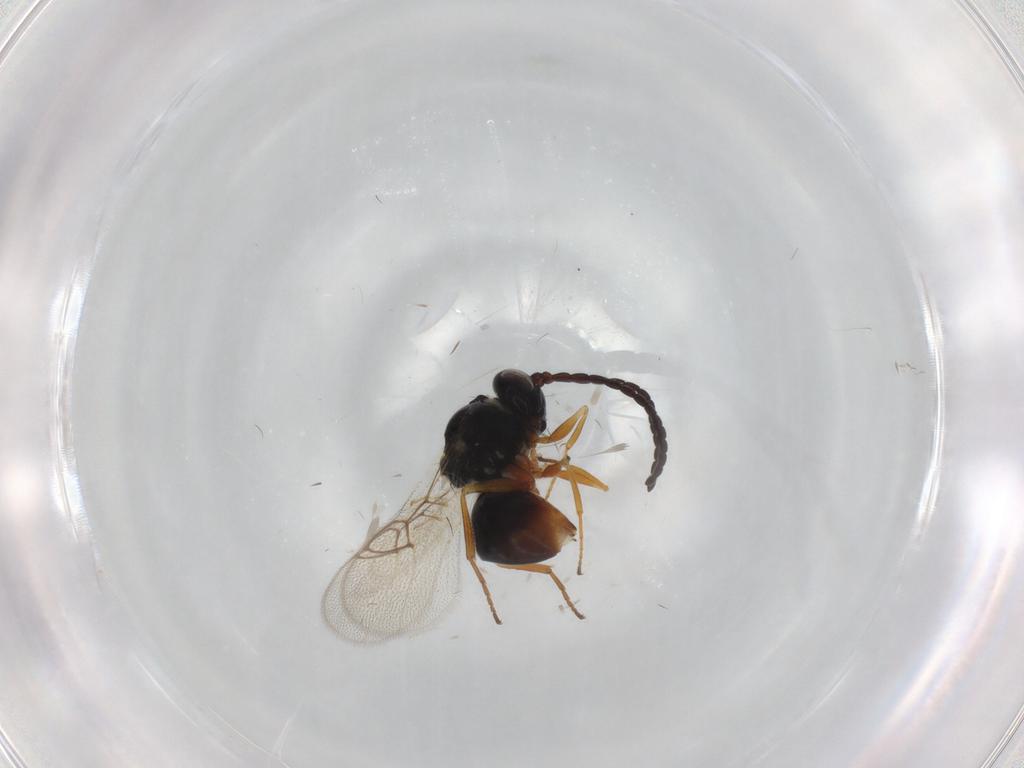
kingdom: Animalia
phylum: Arthropoda
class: Insecta
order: Hymenoptera
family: Figitidae
